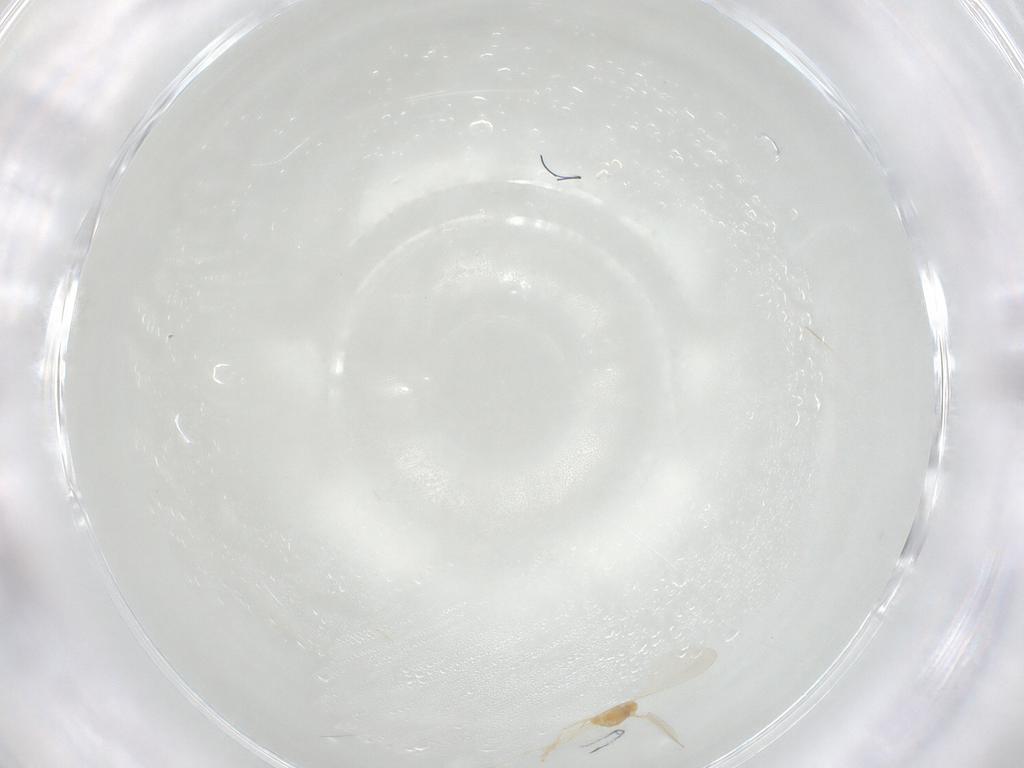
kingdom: Animalia
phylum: Arthropoda
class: Insecta
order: Diptera
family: Cecidomyiidae
